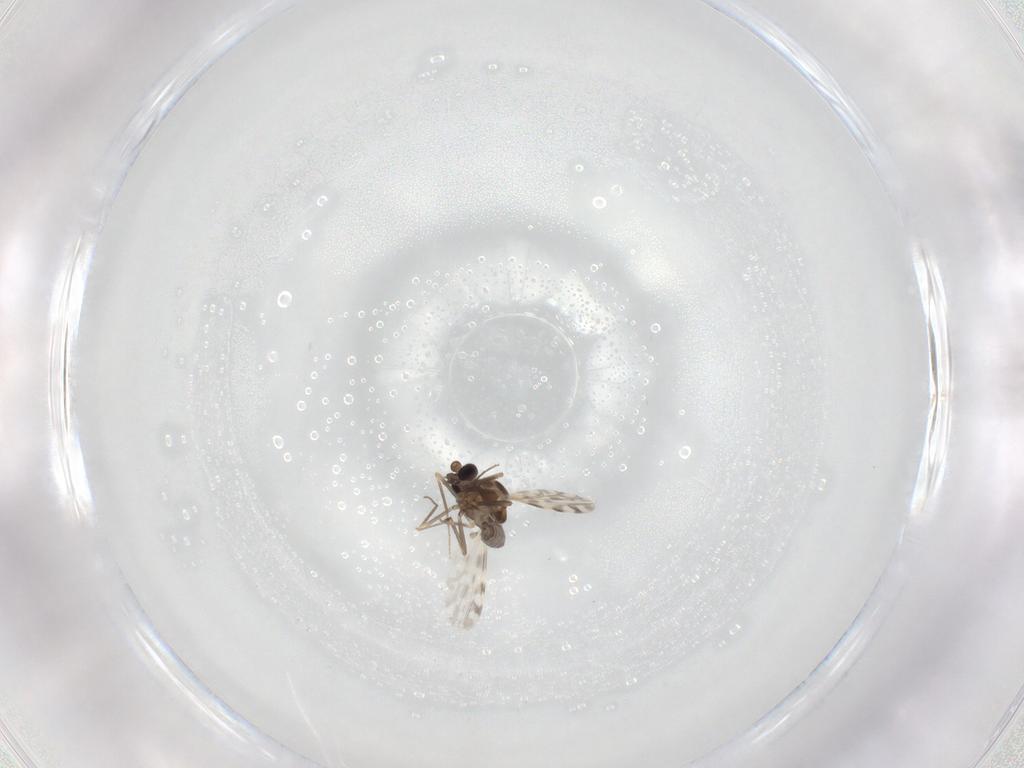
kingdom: Animalia
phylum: Arthropoda
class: Insecta
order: Diptera
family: Ceratopogonidae
